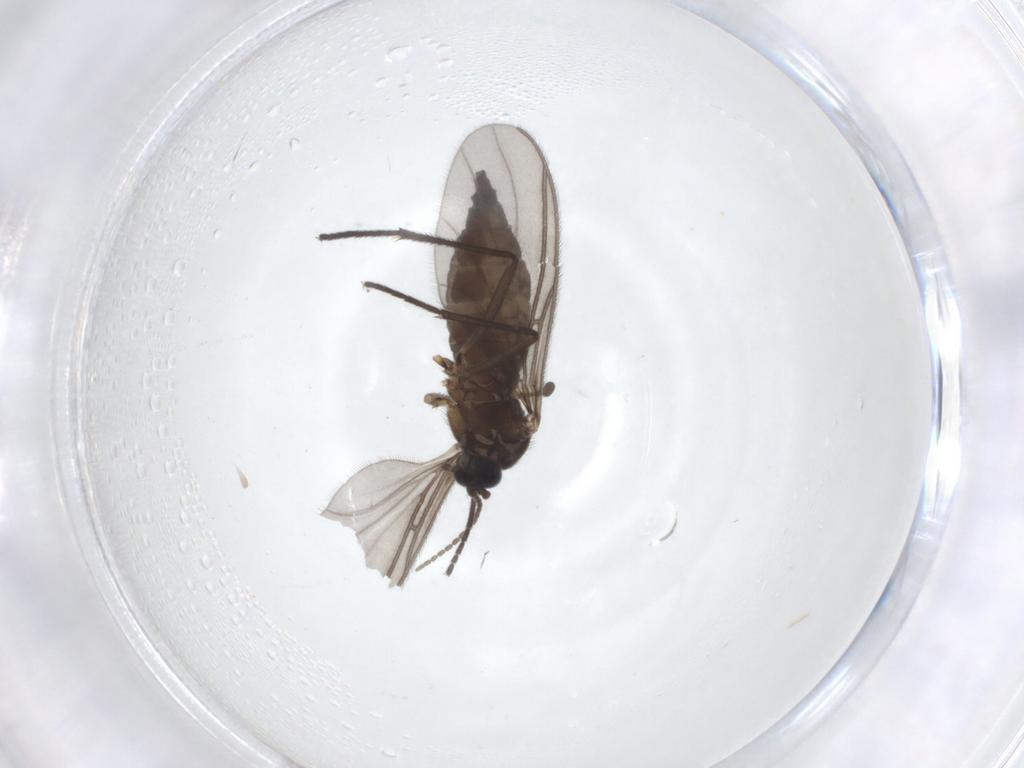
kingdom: Animalia
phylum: Arthropoda
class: Insecta
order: Diptera
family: Sciaridae
